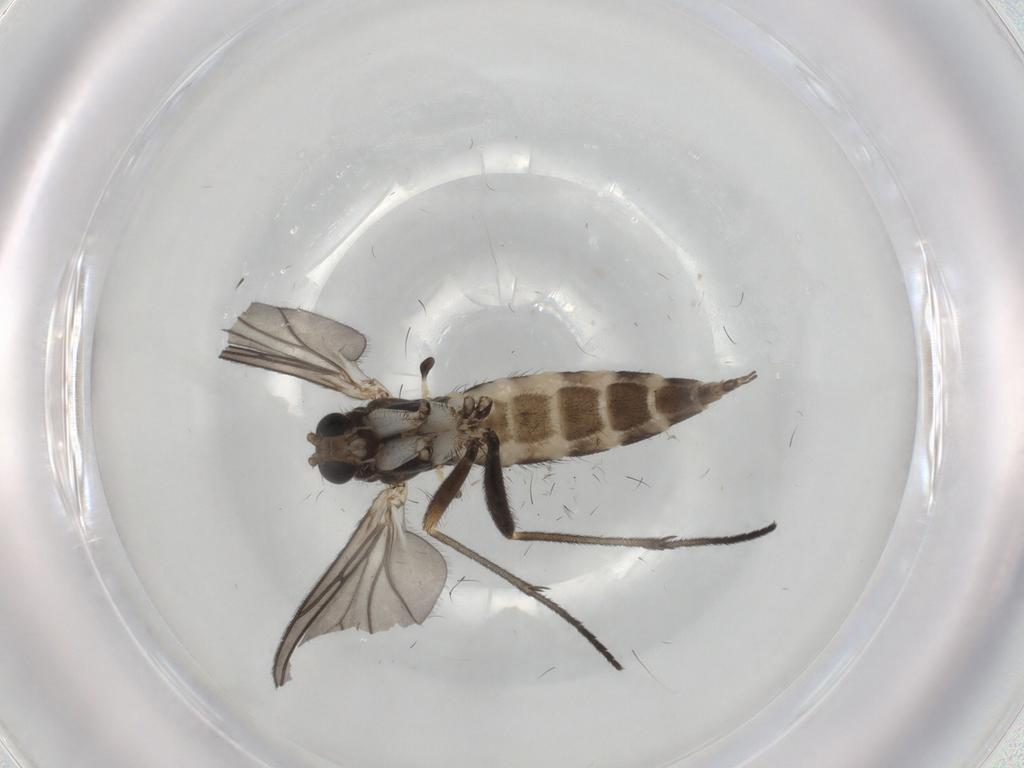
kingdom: Animalia
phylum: Arthropoda
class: Insecta
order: Diptera
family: Sciaridae
